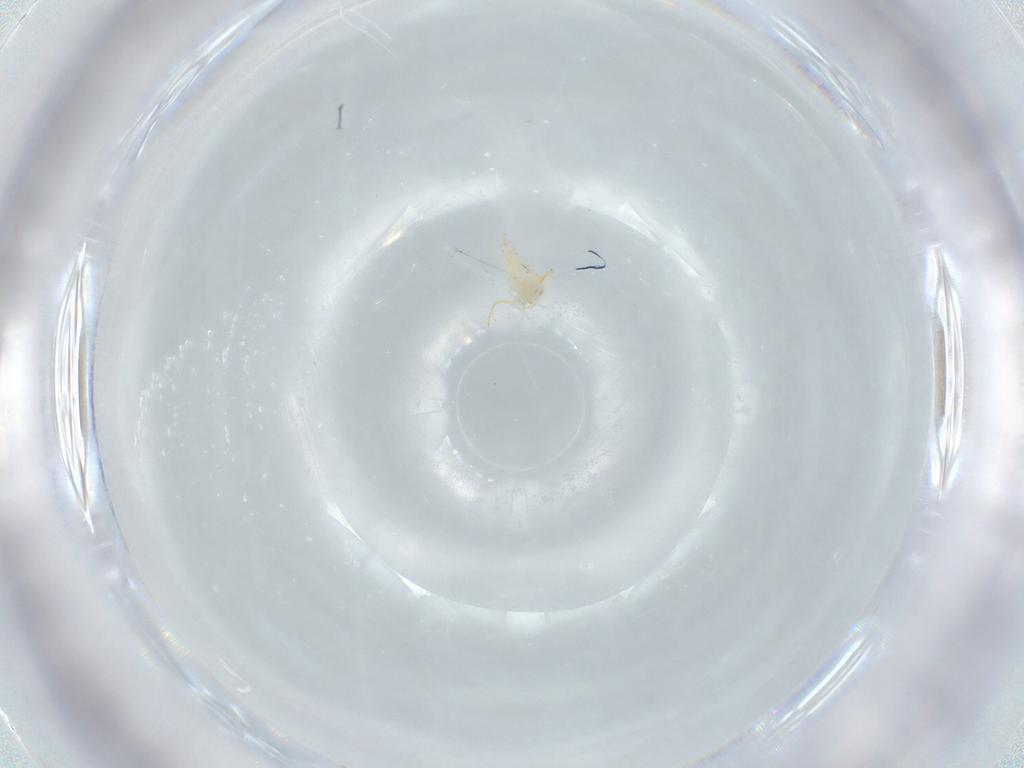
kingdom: Animalia
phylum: Arthropoda
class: Insecta
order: Hemiptera
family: Aleyrodidae
